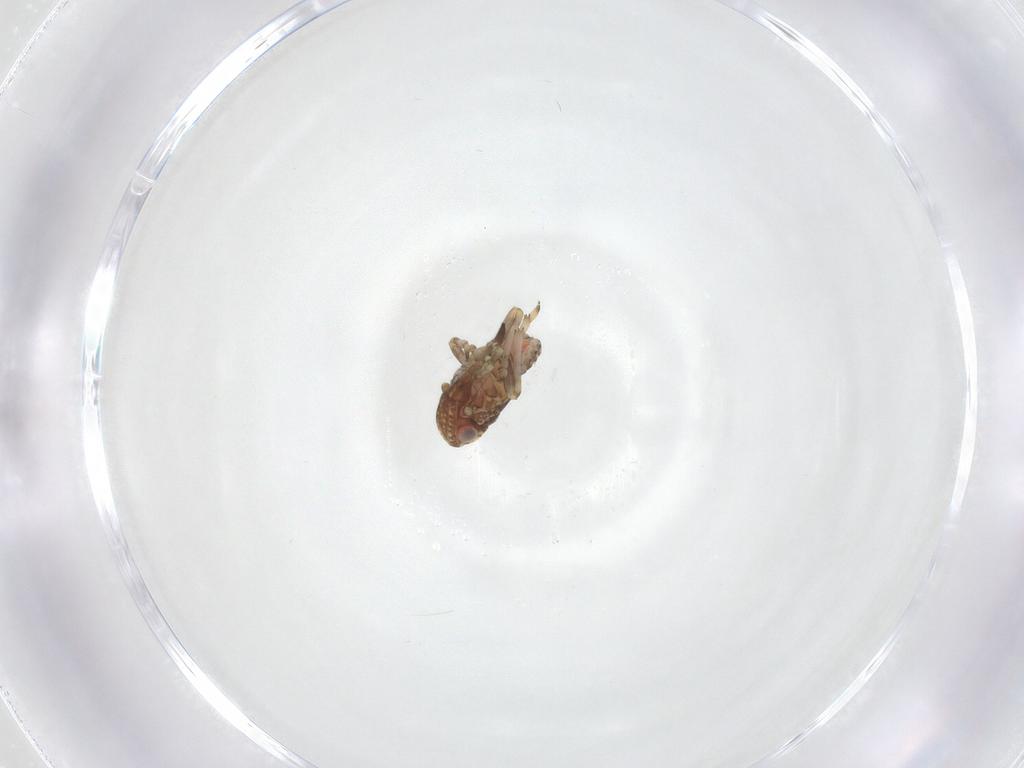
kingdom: Animalia
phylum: Arthropoda
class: Insecta
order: Hemiptera
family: Tropiduchidae
